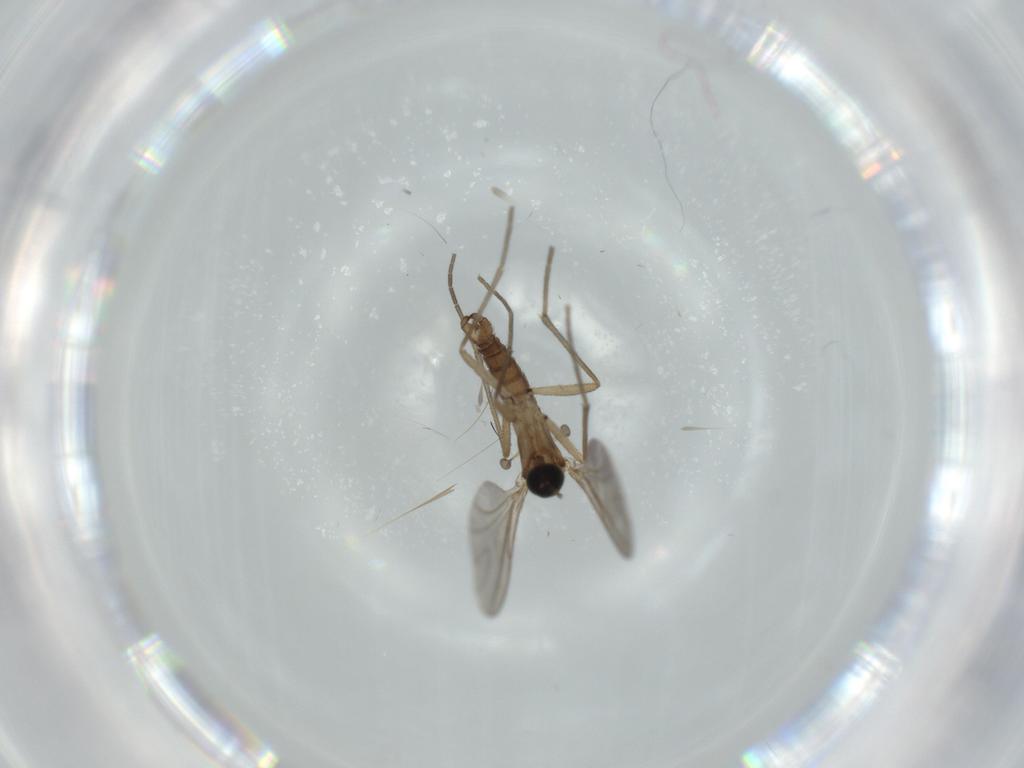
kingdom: Animalia
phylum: Arthropoda
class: Insecta
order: Diptera
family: Sciaridae
